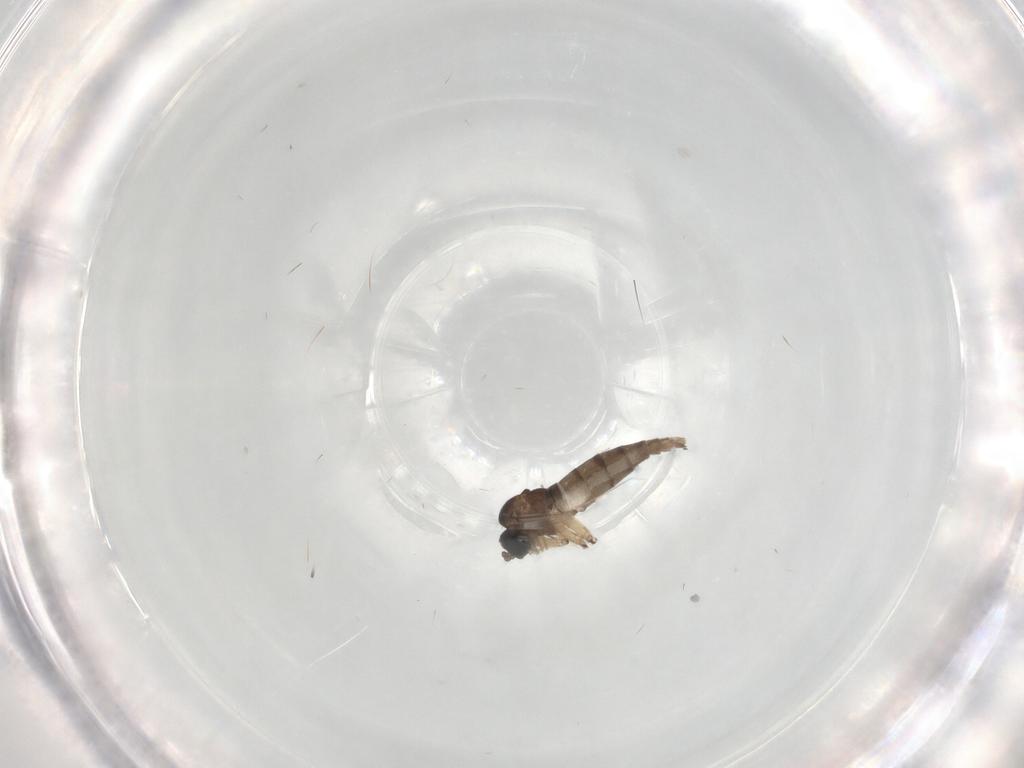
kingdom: Animalia
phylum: Arthropoda
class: Insecta
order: Diptera
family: Sciaridae
